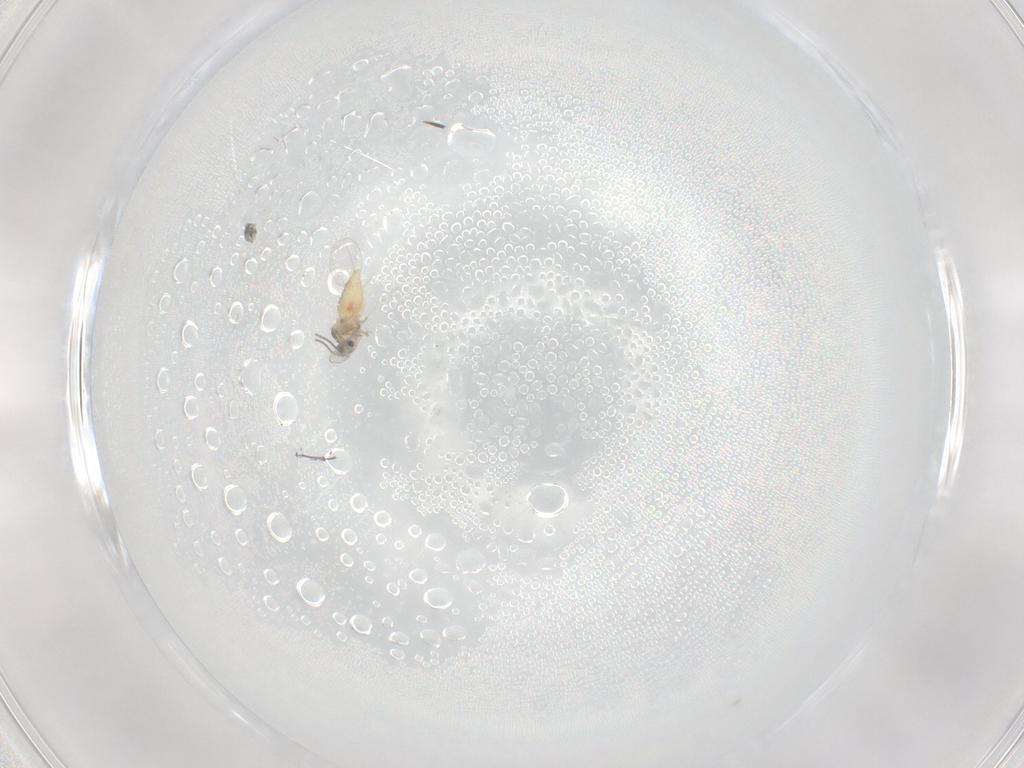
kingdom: Animalia
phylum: Arthropoda
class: Insecta
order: Diptera
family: Cecidomyiidae
